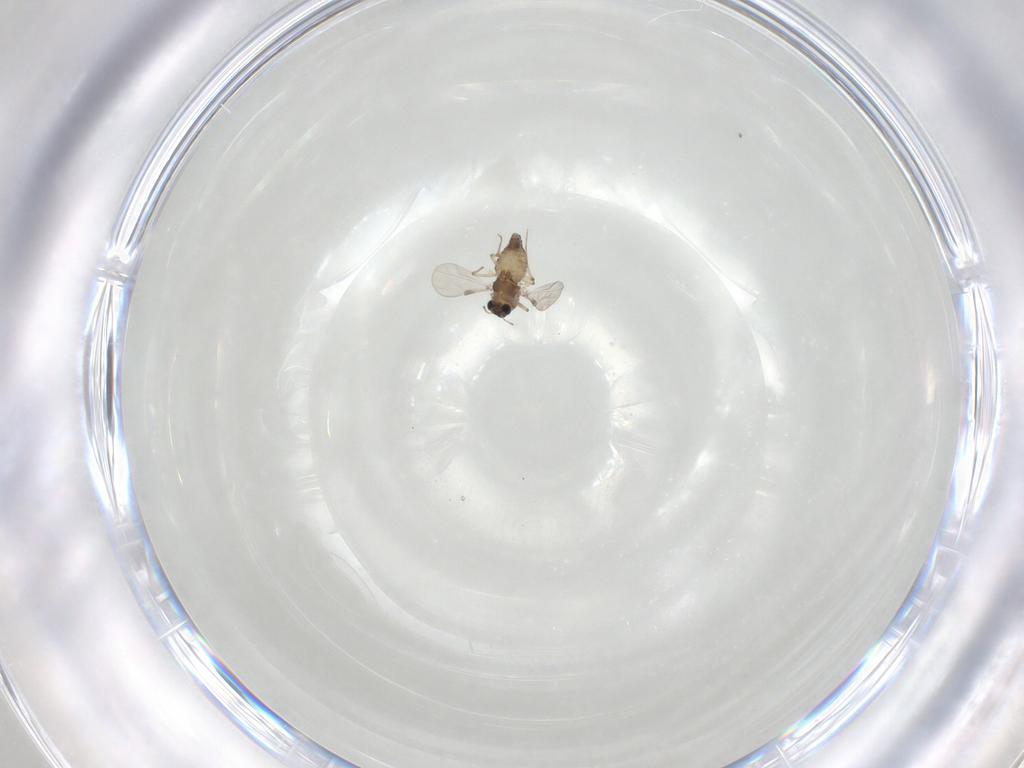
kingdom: Animalia
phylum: Arthropoda
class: Insecta
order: Diptera
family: Chironomidae
